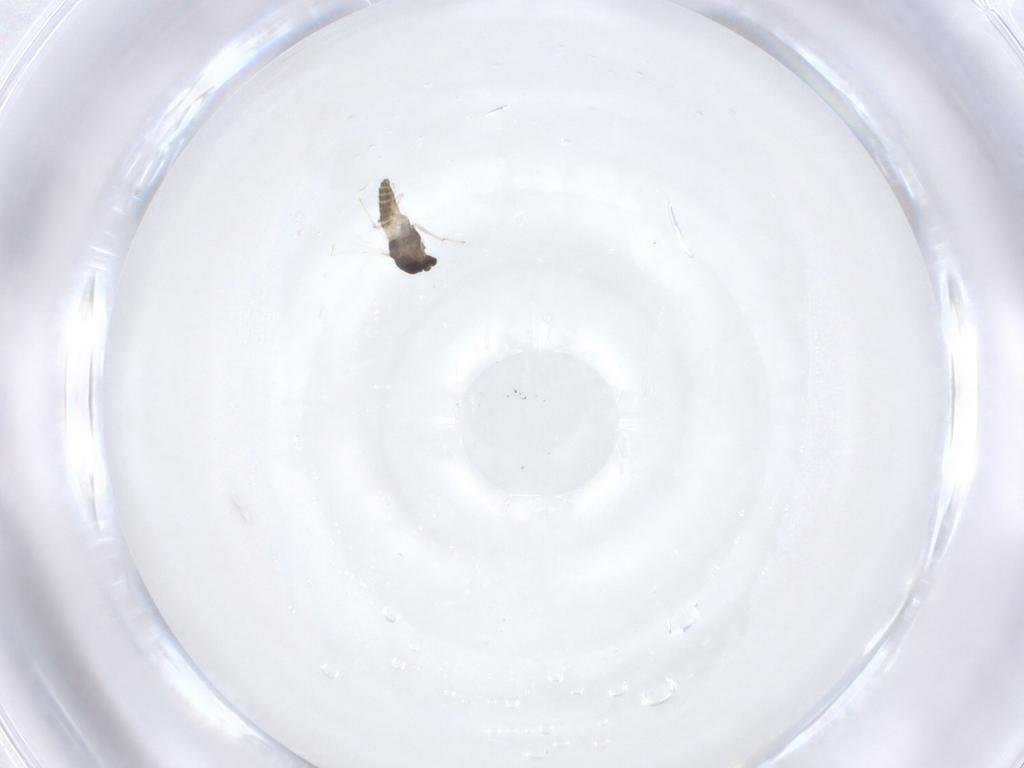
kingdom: Animalia
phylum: Arthropoda
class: Insecta
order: Diptera
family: Chironomidae
